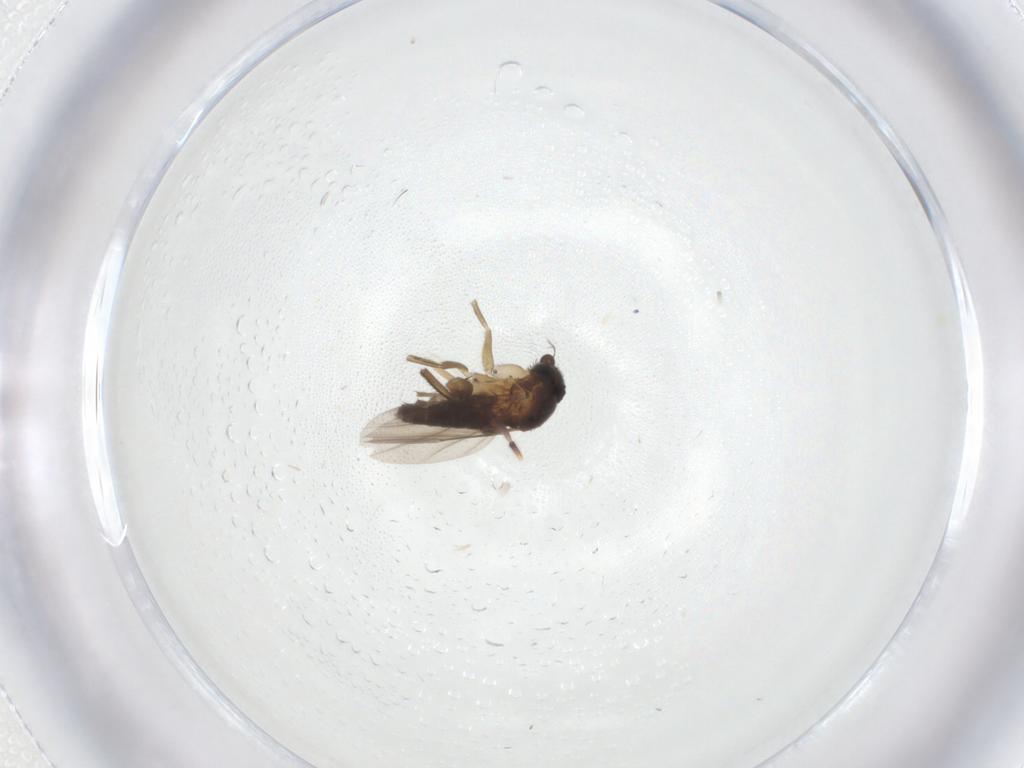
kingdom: Animalia
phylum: Arthropoda
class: Insecta
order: Diptera
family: Phoridae
